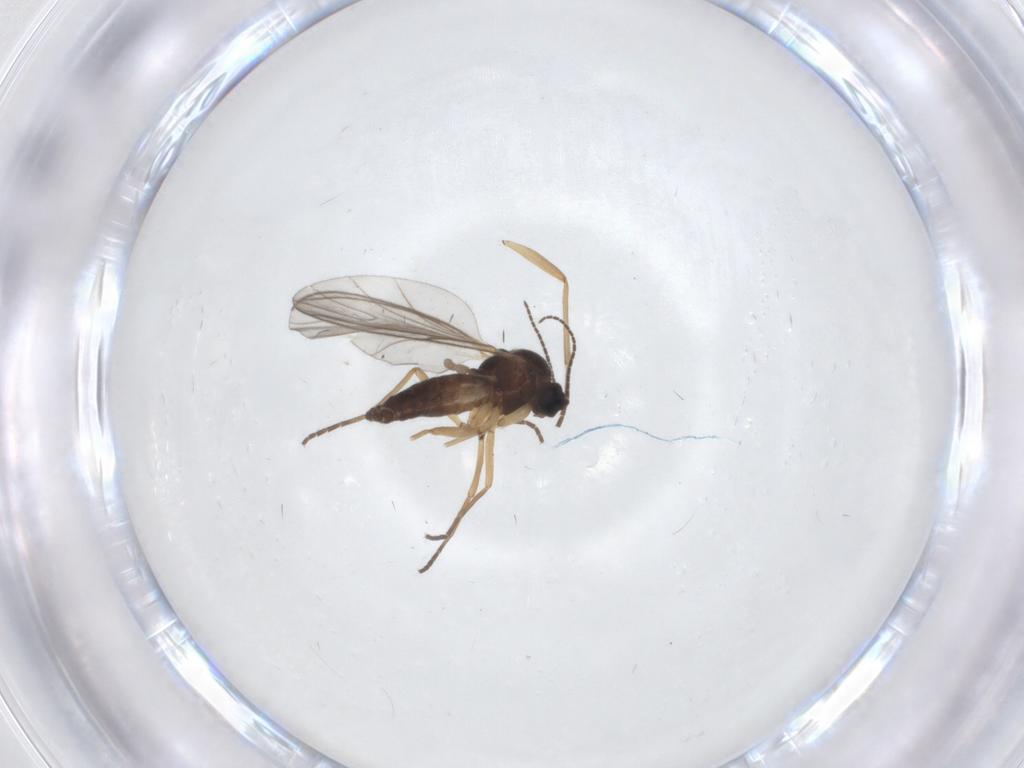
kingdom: Animalia
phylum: Arthropoda
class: Insecta
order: Diptera
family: Sciaridae
